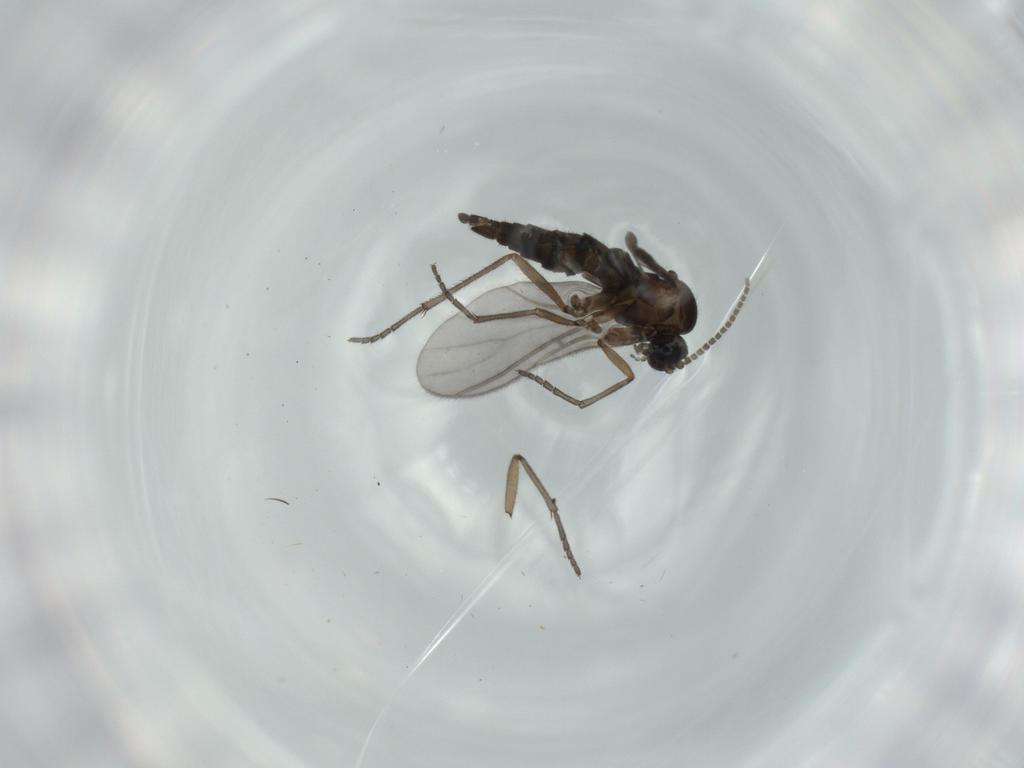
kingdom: Animalia
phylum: Arthropoda
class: Insecta
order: Diptera
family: Sciaridae
